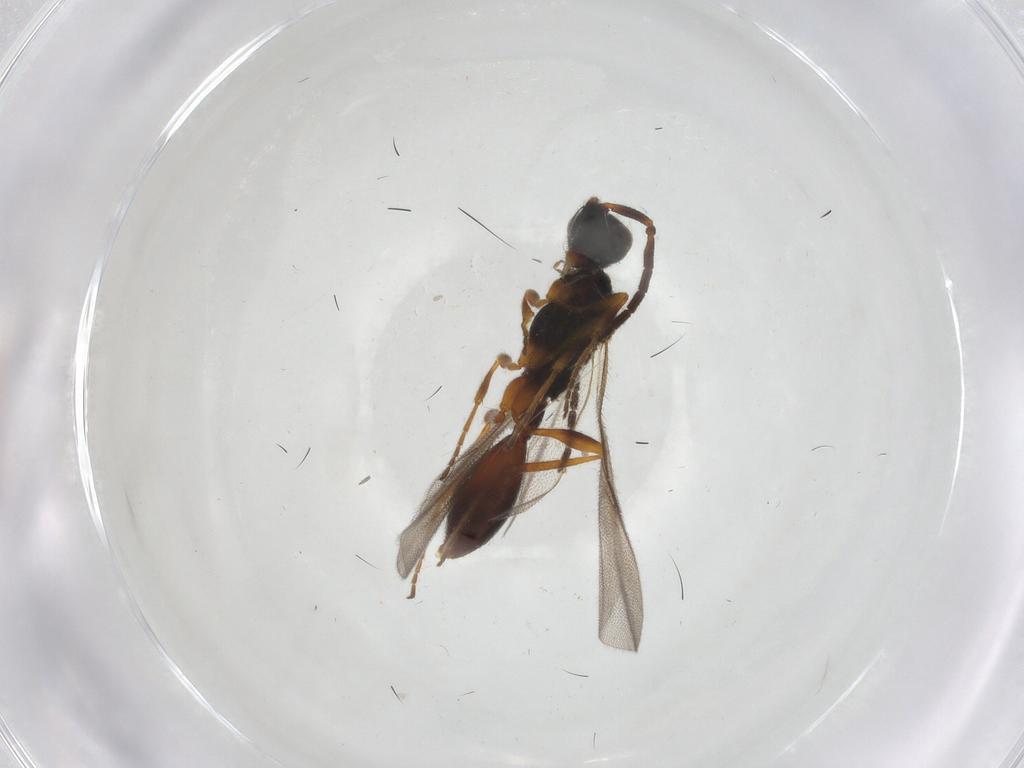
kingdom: Animalia
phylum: Arthropoda
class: Insecta
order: Hymenoptera
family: Diapriidae
